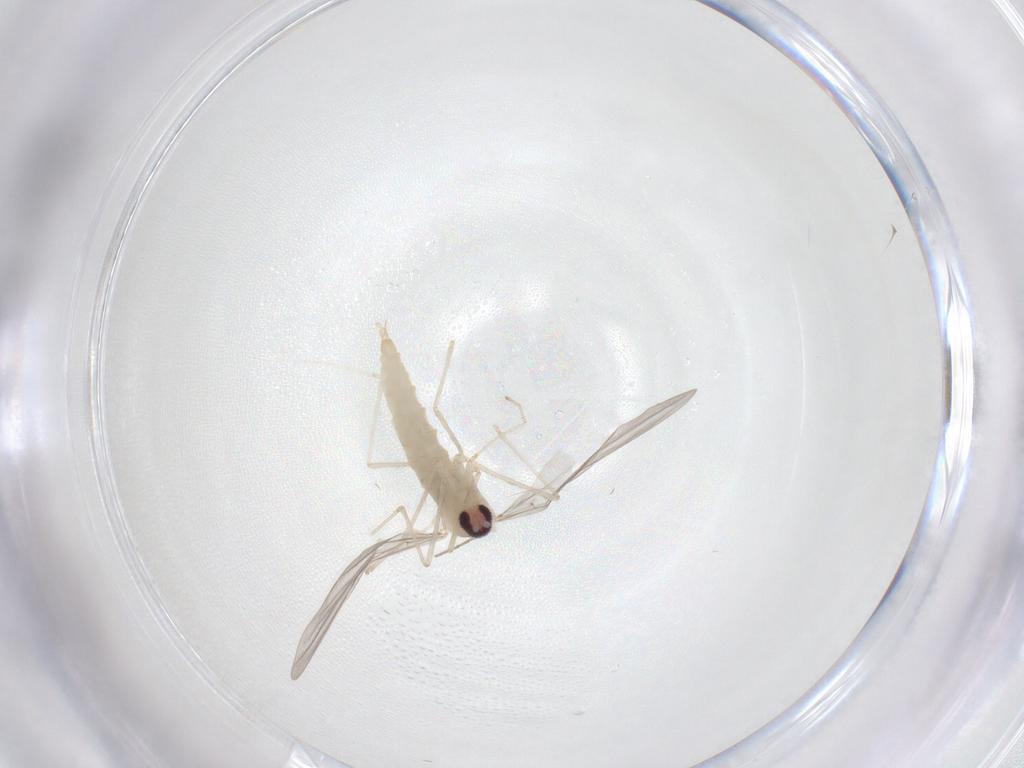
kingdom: Animalia
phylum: Arthropoda
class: Insecta
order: Diptera
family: Cecidomyiidae
